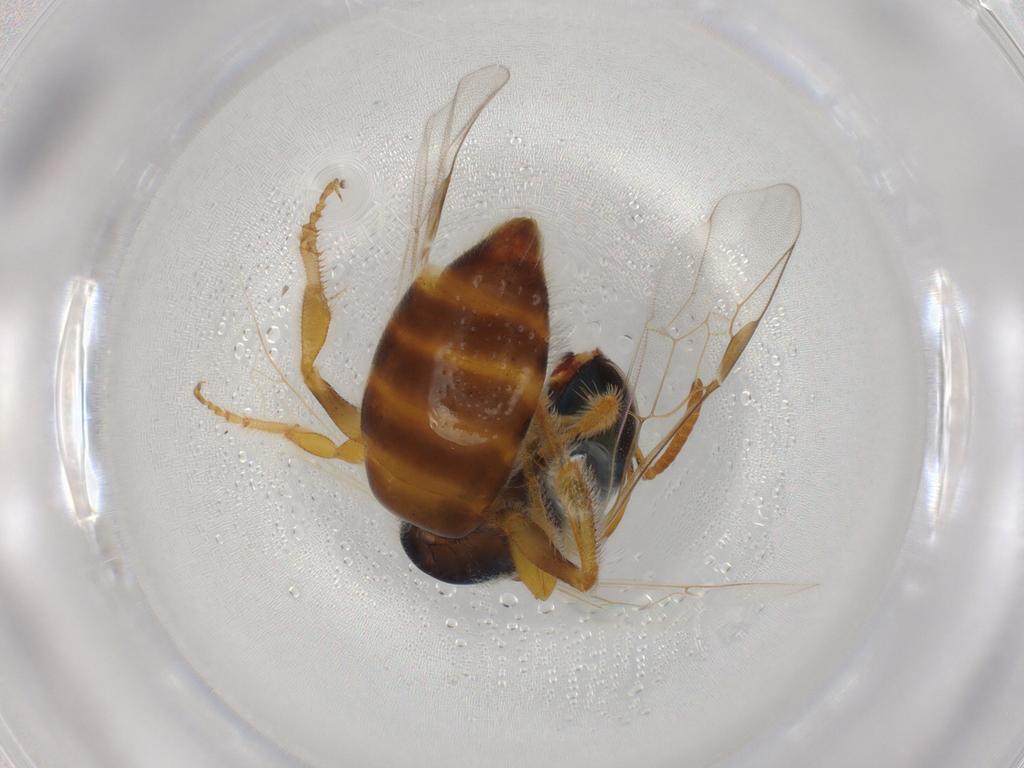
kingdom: Animalia
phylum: Arthropoda
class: Insecta
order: Hymenoptera
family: Halictidae
